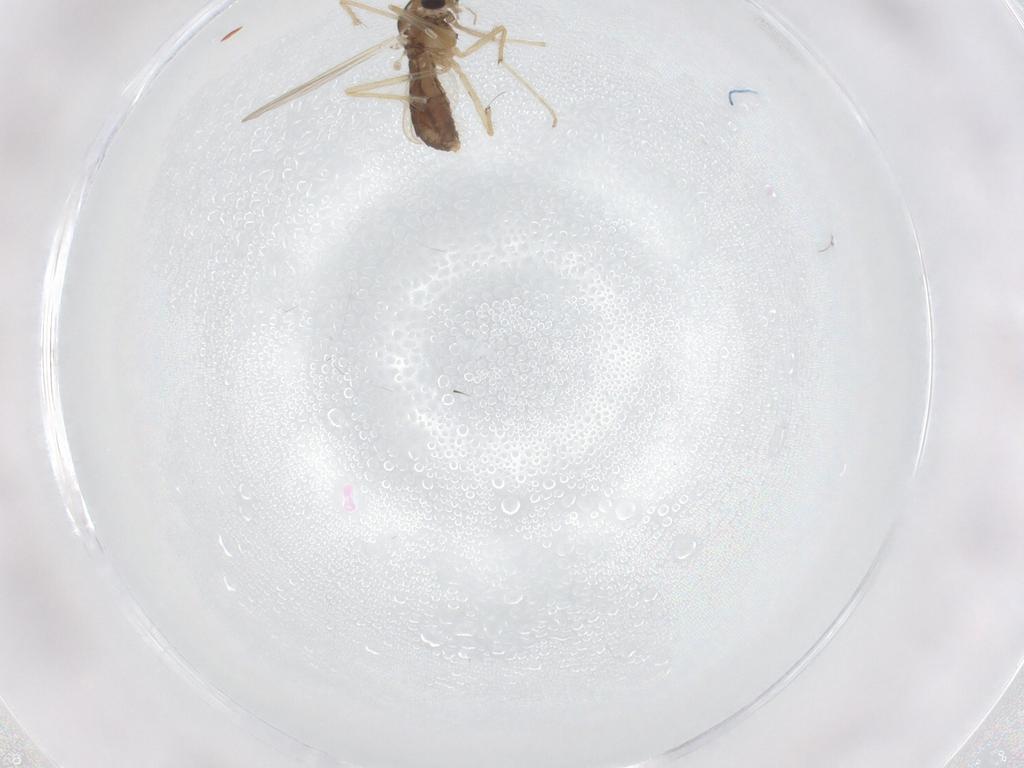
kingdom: Animalia
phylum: Arthropoda
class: Insecta
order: Diptera
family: Chironomidae
